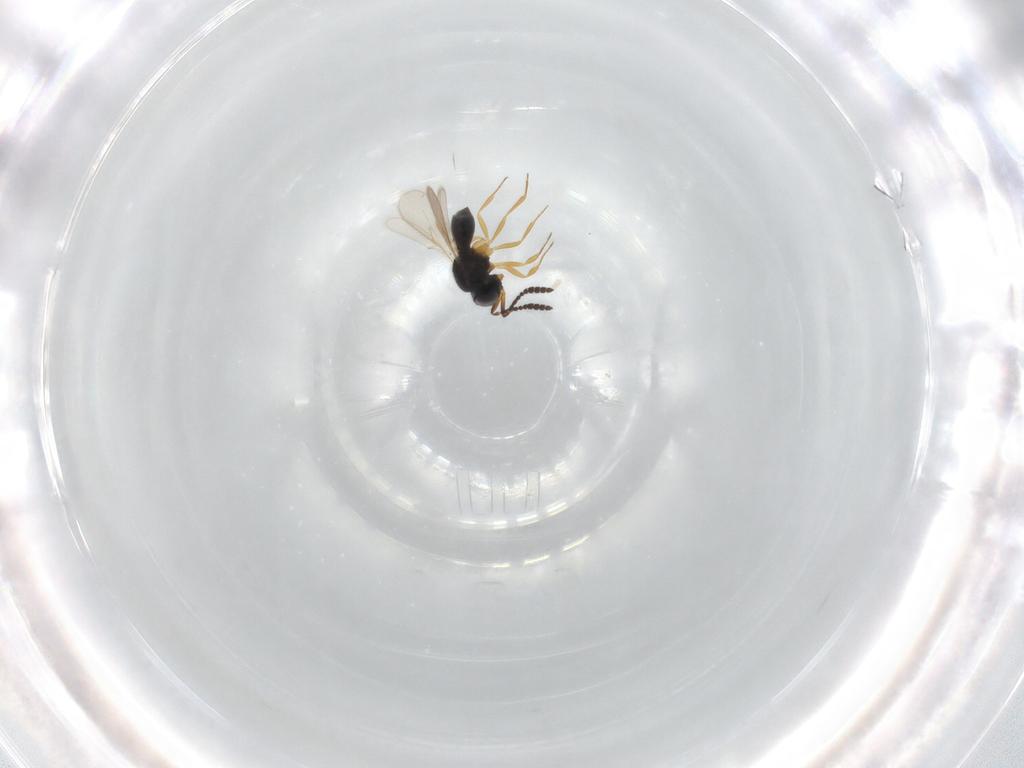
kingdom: Animalia
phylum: Arthropoda
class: Insecta
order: Hymenoptera
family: Scelionidae
